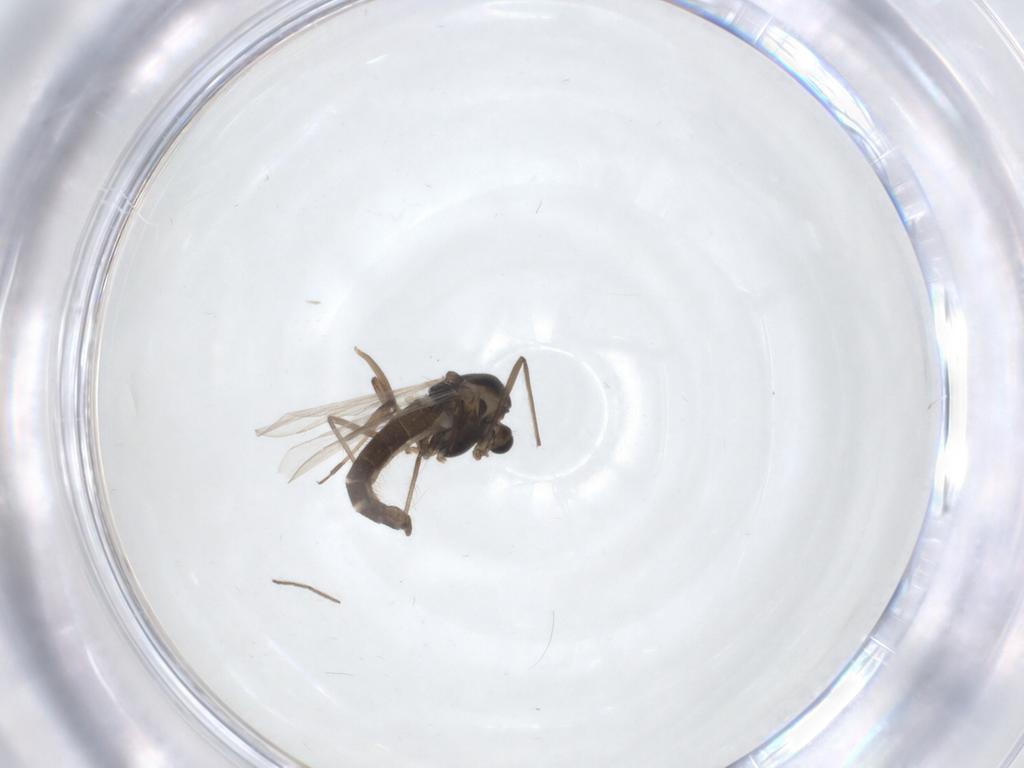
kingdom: Animalia
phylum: Arthropoda
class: Insecta
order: Diptera
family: Chironomidae
